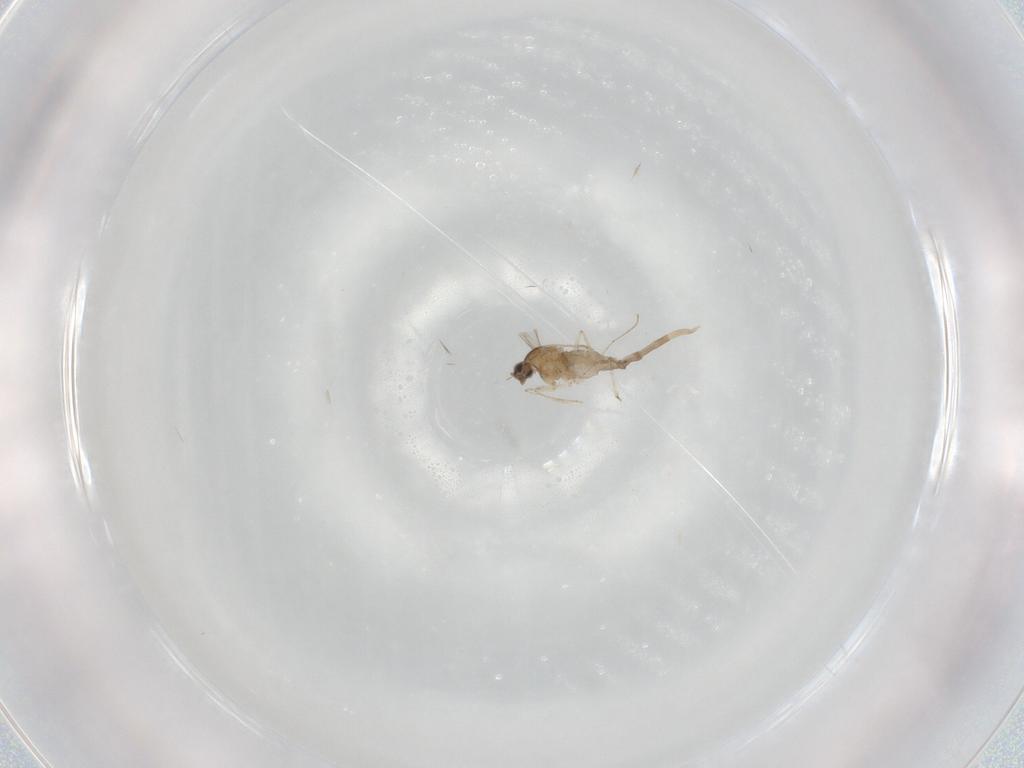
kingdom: Animalia
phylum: Arthropoda
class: Insecta
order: Diptera
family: Cecidomyiidae
